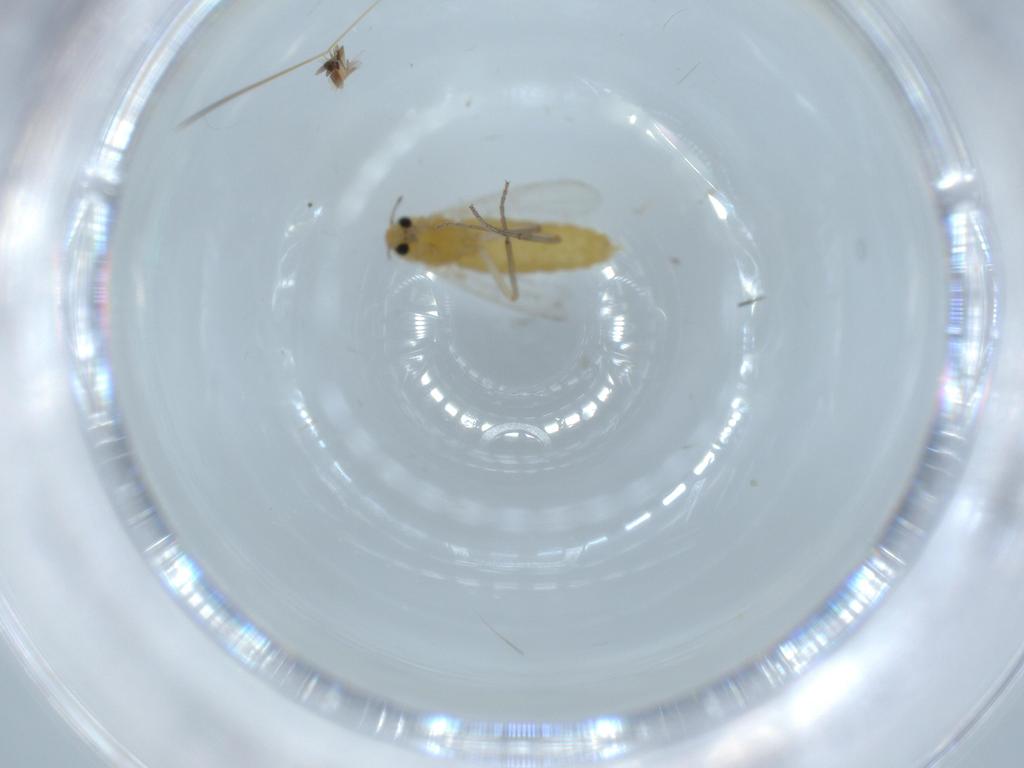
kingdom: Animalia
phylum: Arthropoda
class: Insecta
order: Diptera
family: Chironomidae
